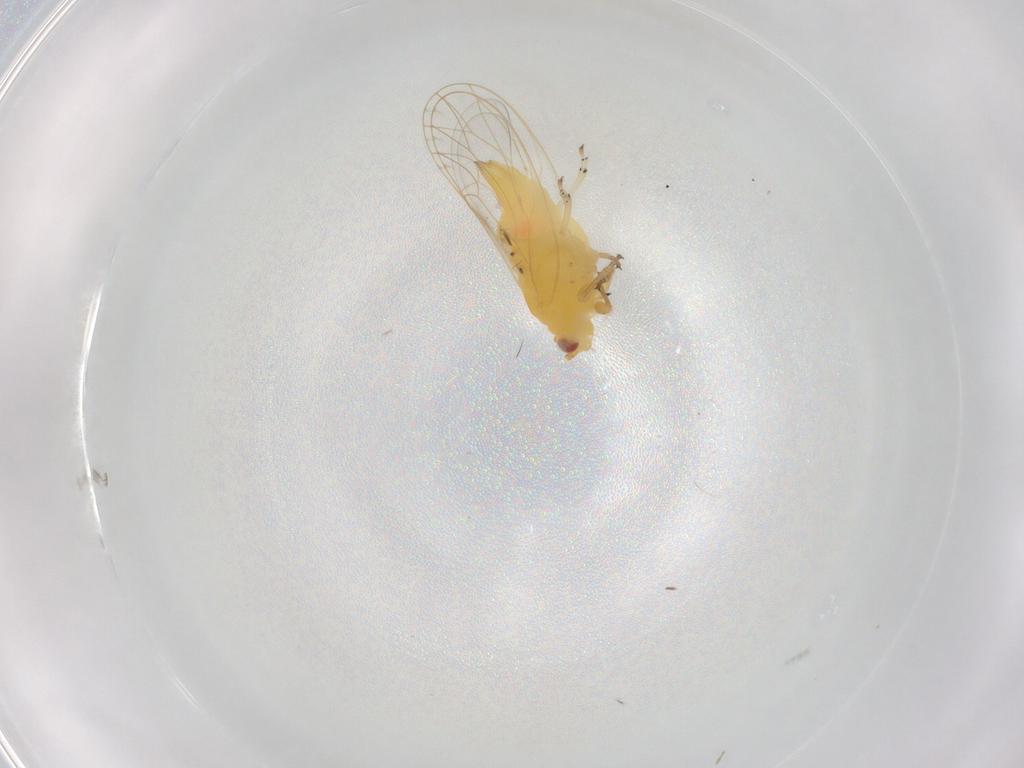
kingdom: Animalia
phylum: Arthropoda
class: Insecta
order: Hemiptera
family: Psyllidae
